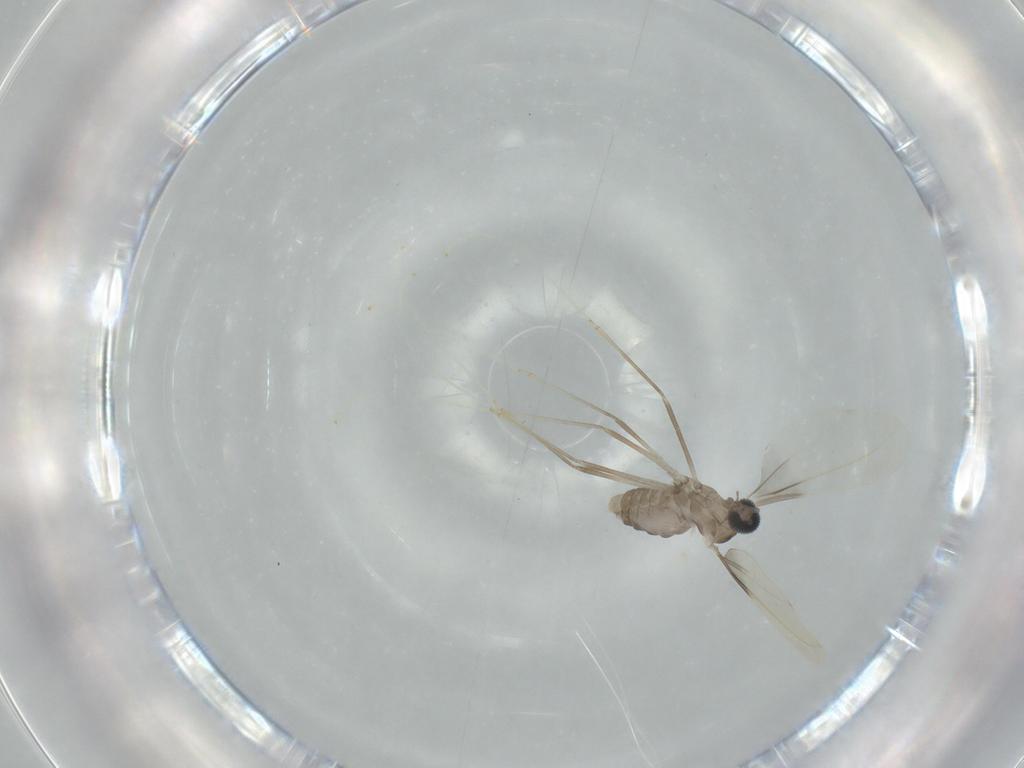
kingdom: Animalia
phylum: Arthropoda
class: Insecta
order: Diptera
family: Cecidomyiidae
